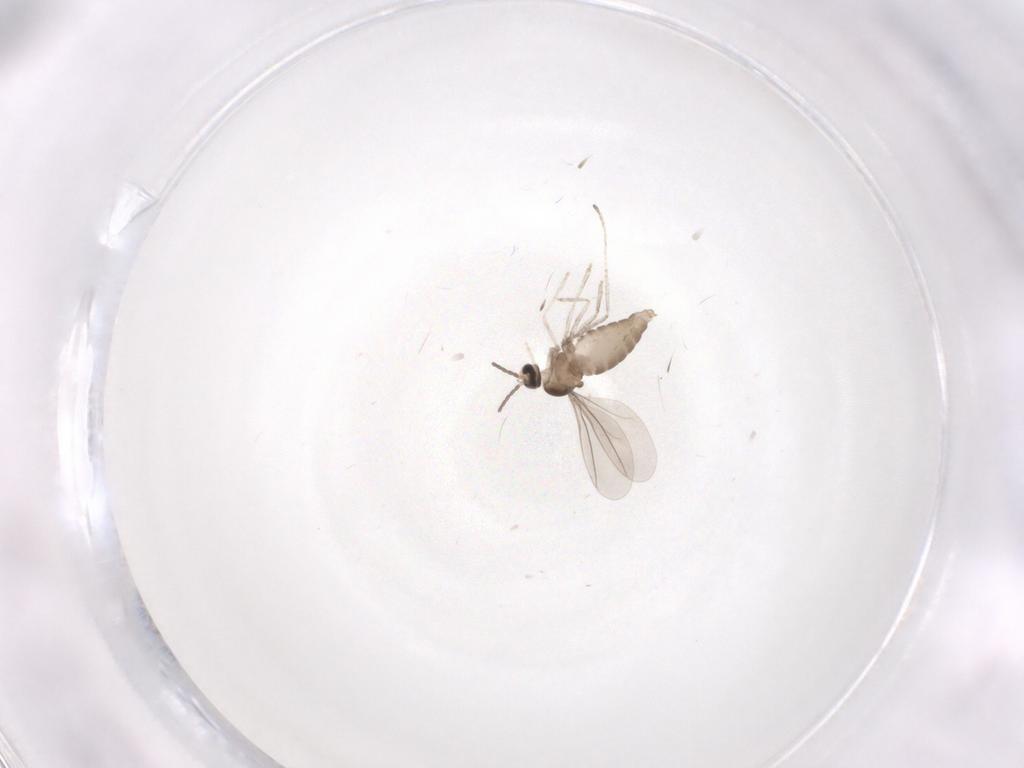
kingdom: Animalia
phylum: Arthropoda
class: Insecta
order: Diptera
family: Cecidomyiidae
